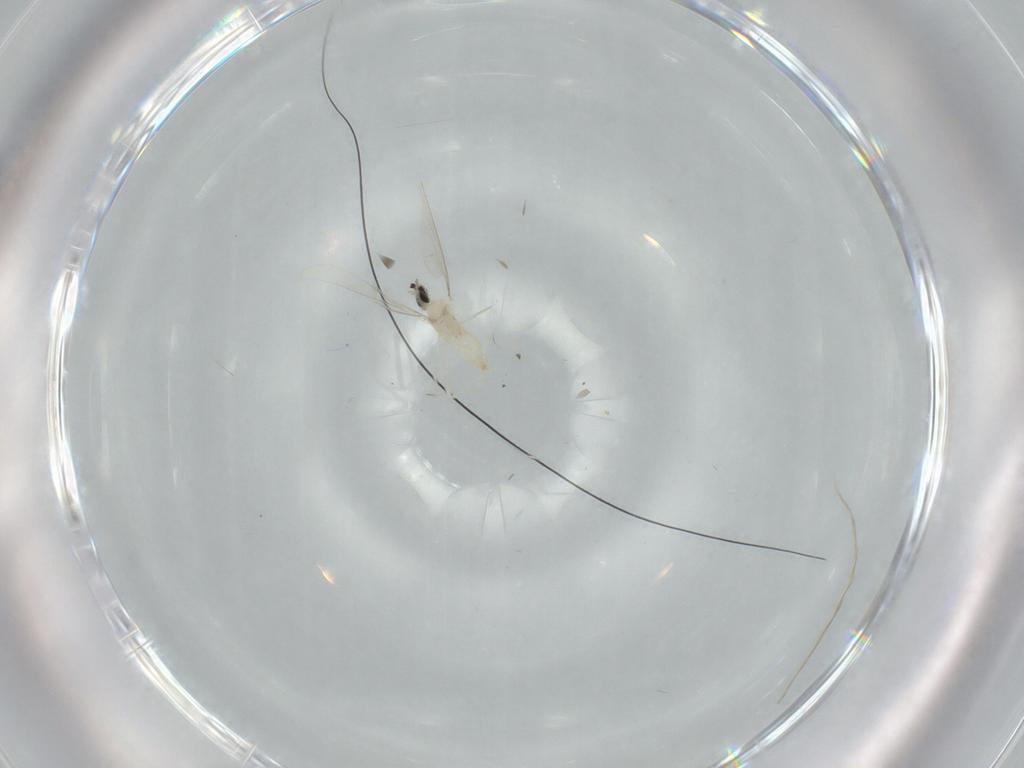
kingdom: Animalia
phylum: Arthropoda
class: Insecta
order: Diptera
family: Cecidomyiidae
